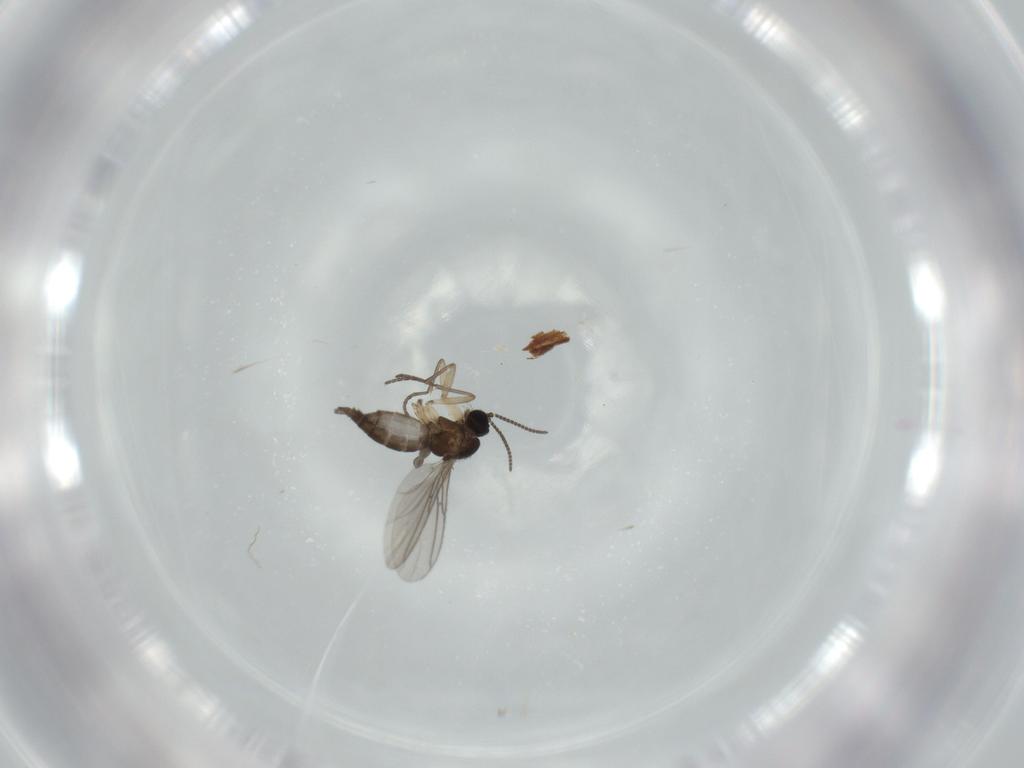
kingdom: Animalia
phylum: Arthropoda
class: Insecta
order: Diptera
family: Sciaridae
